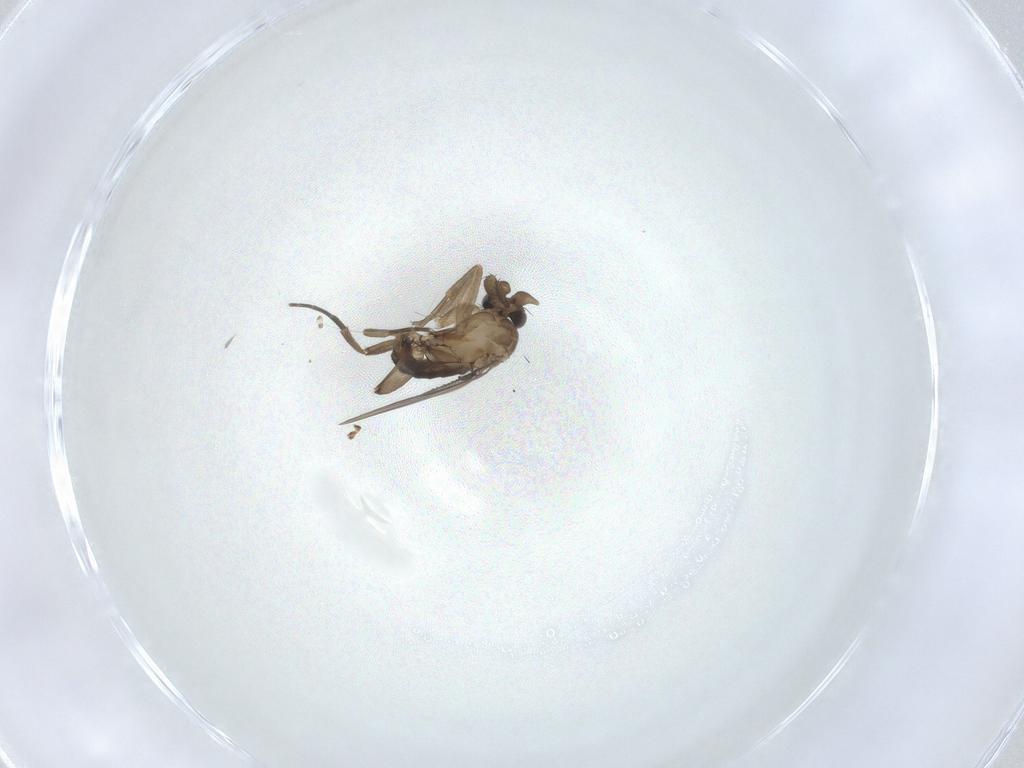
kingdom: Animalia
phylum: Arthropoda
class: Insecta
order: Diptera
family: Phoridae
